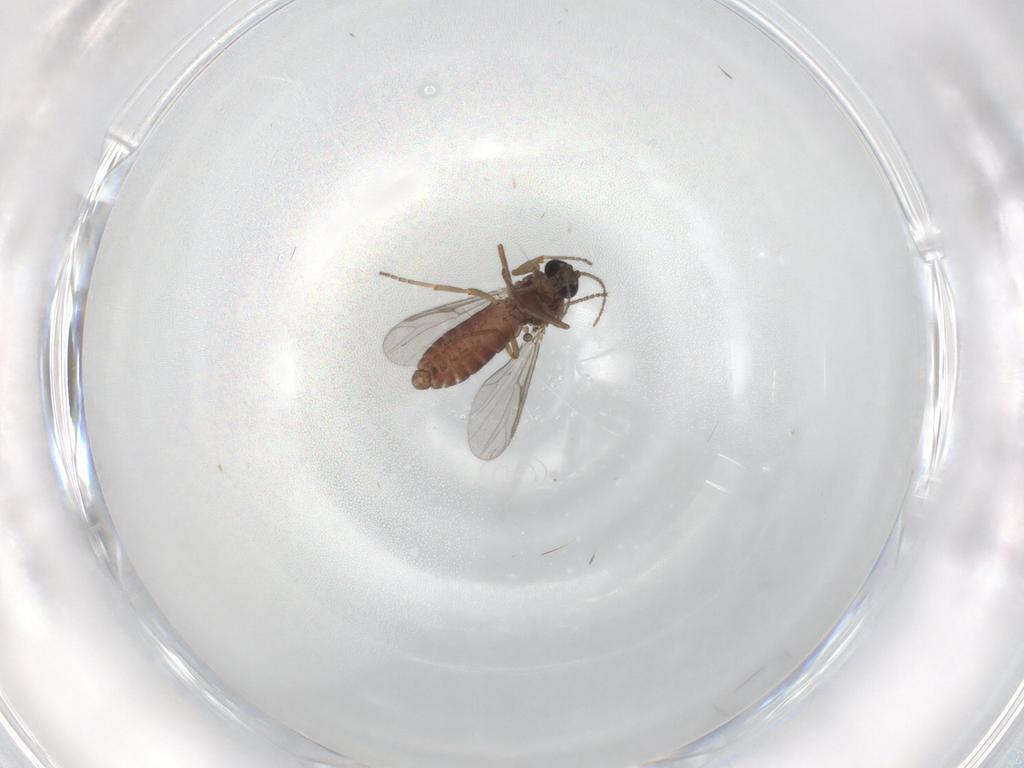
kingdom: Animalia
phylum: Arthropoda
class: Insecta
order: Diptera
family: Ceratopogonidae
